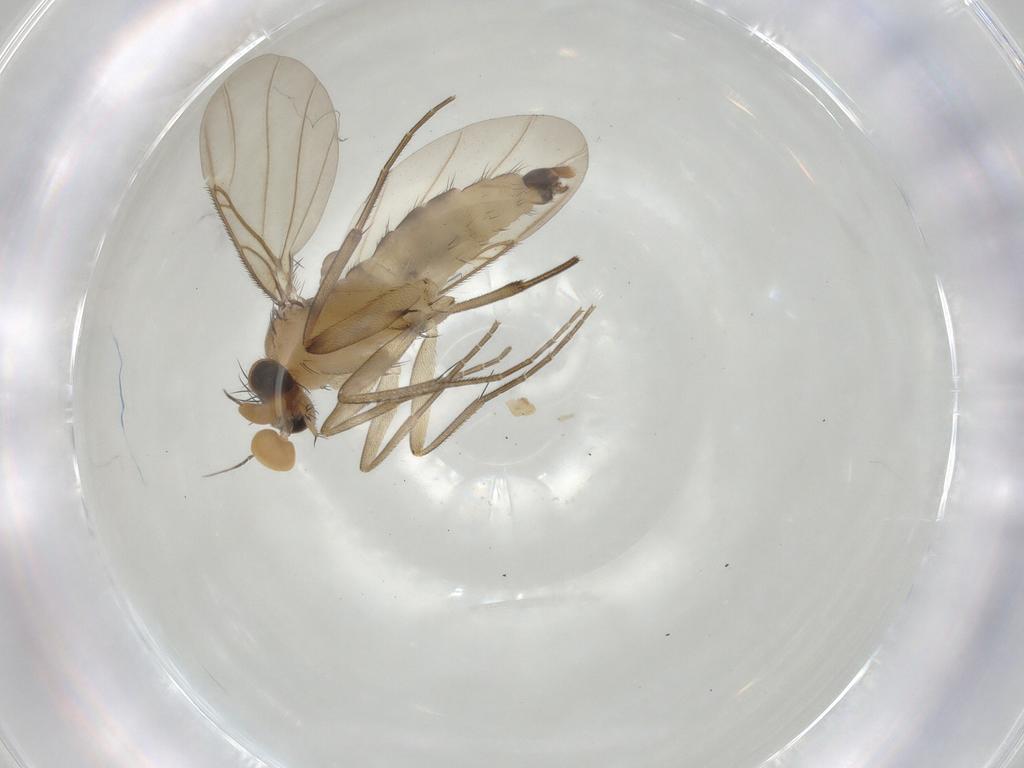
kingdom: Animalia
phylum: Arthropoda
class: Insecta
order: Diptera
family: Phoridae
